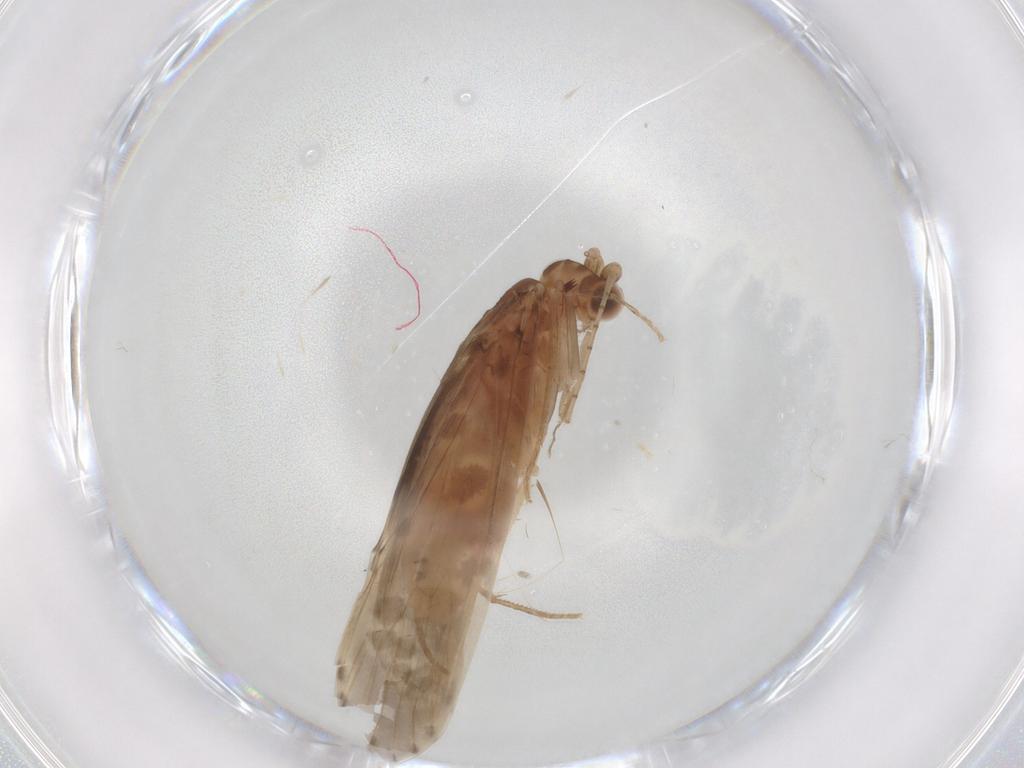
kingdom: Animalia
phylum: Arthropoda
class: Insecta
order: Trichoptera
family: Leptoceridae
